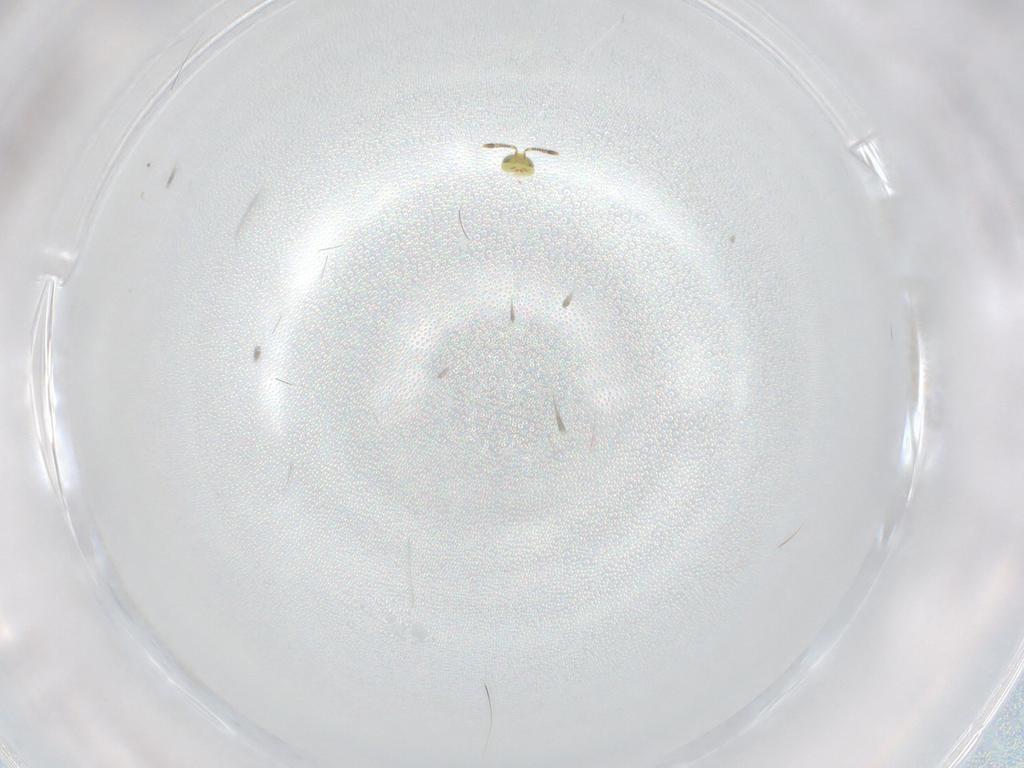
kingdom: Animalia
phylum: Arthropoda
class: Insecta
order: Hymenoptera
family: Encyrtidae
